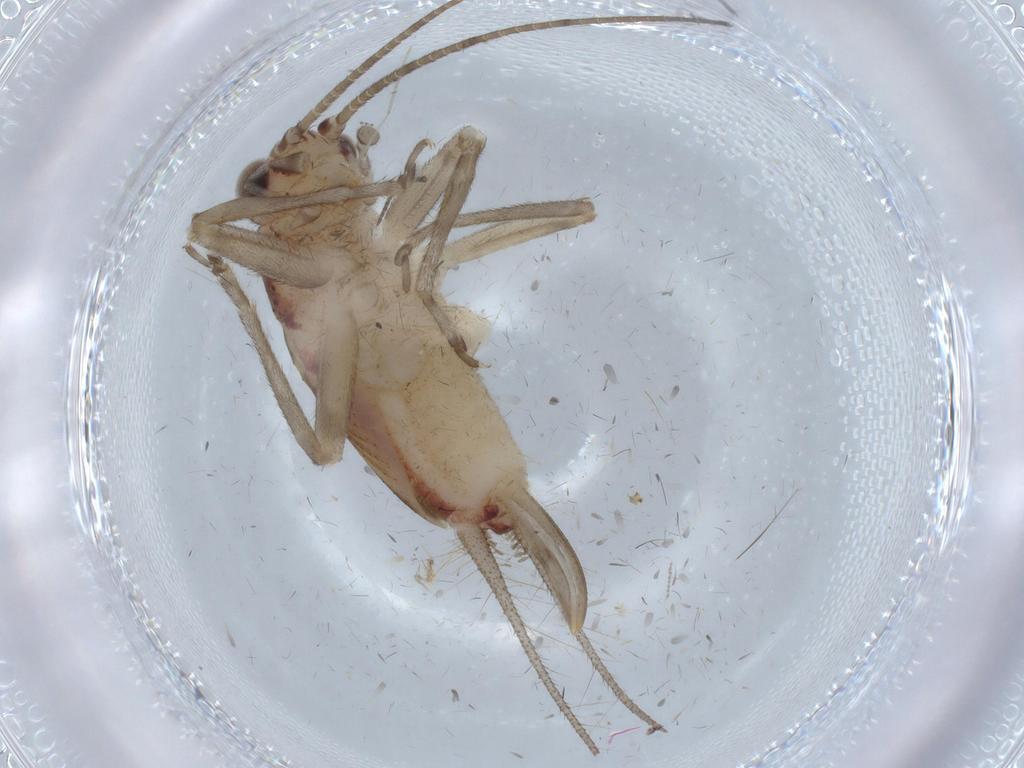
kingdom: Animalia
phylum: Arthropoda
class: Insecta
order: Orthoptera
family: Trigonidiidae
